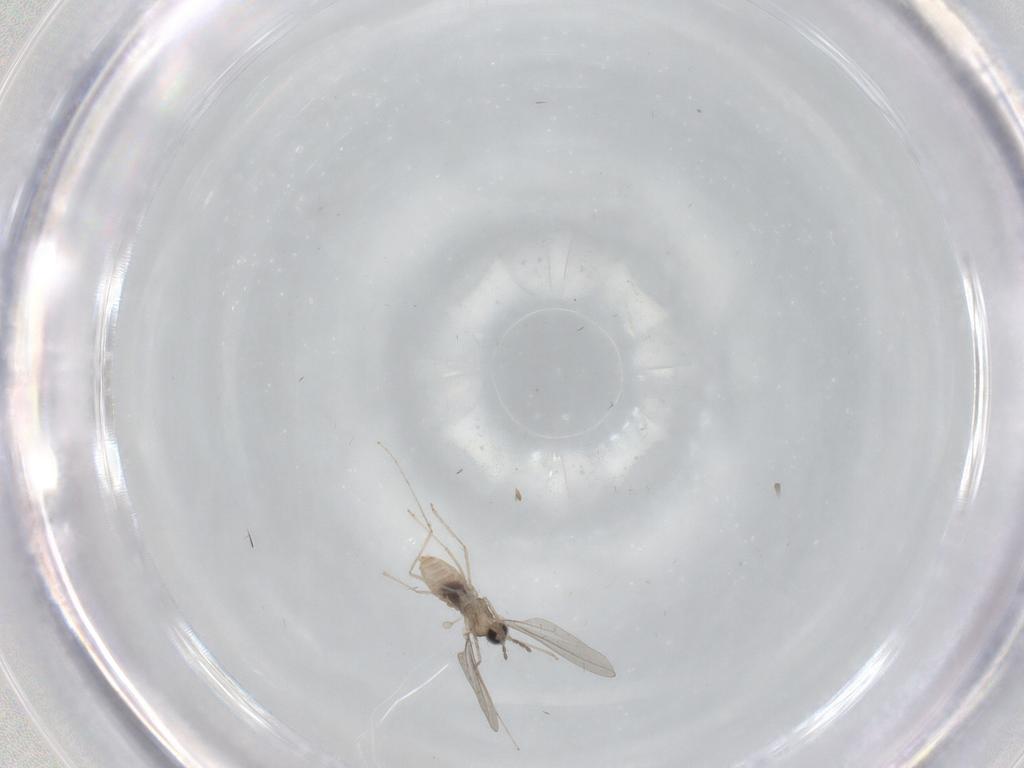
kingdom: Animalia
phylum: Arthropoda
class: Insecta
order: Diptera
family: Cecidomyiidae
